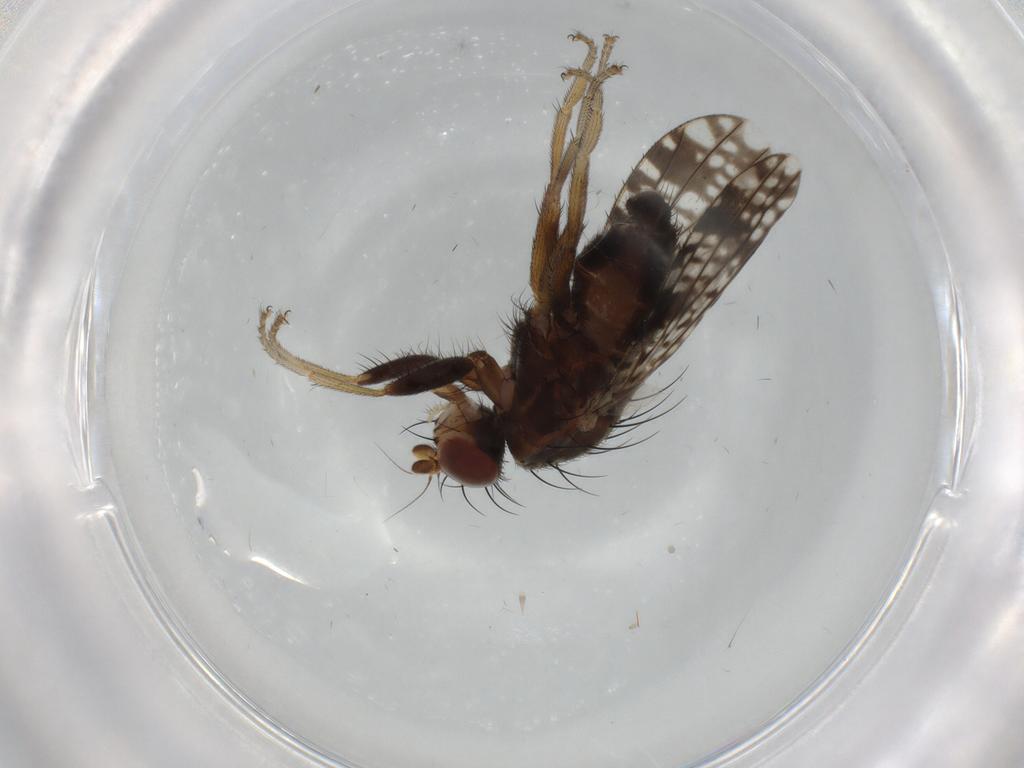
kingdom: Animalia
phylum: Arthropoda
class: Insecta
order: Diptera
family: Tephritidae
